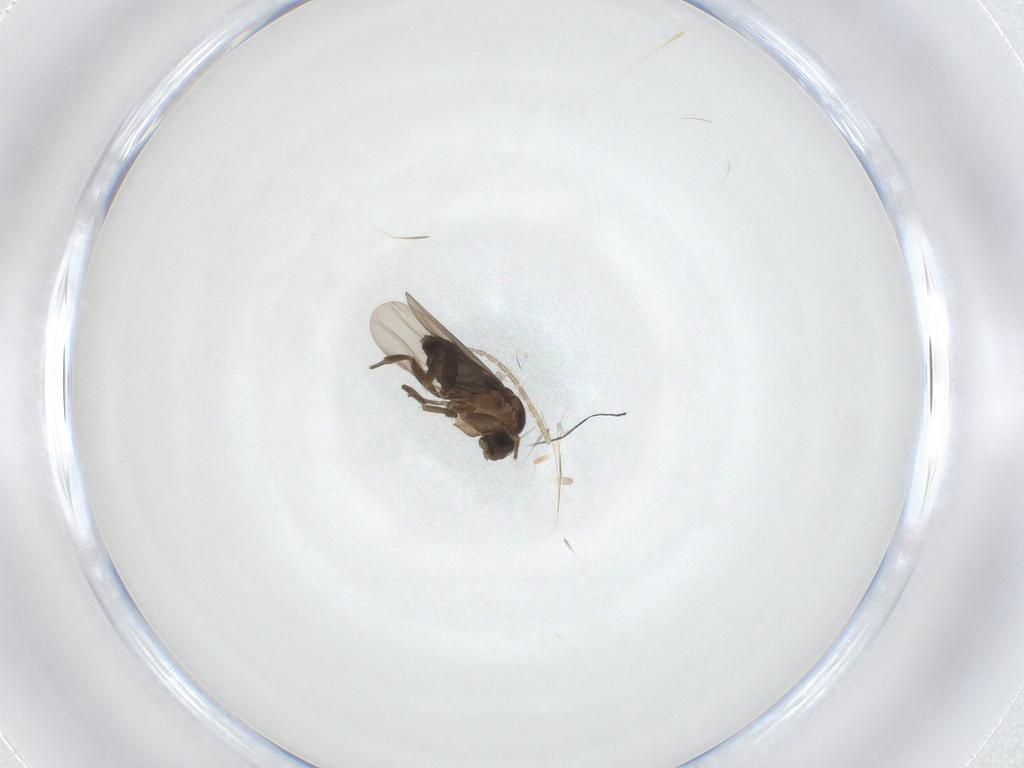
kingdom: Animalia
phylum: Arthropoda
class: Insecta
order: Diptera
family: Phoridae
